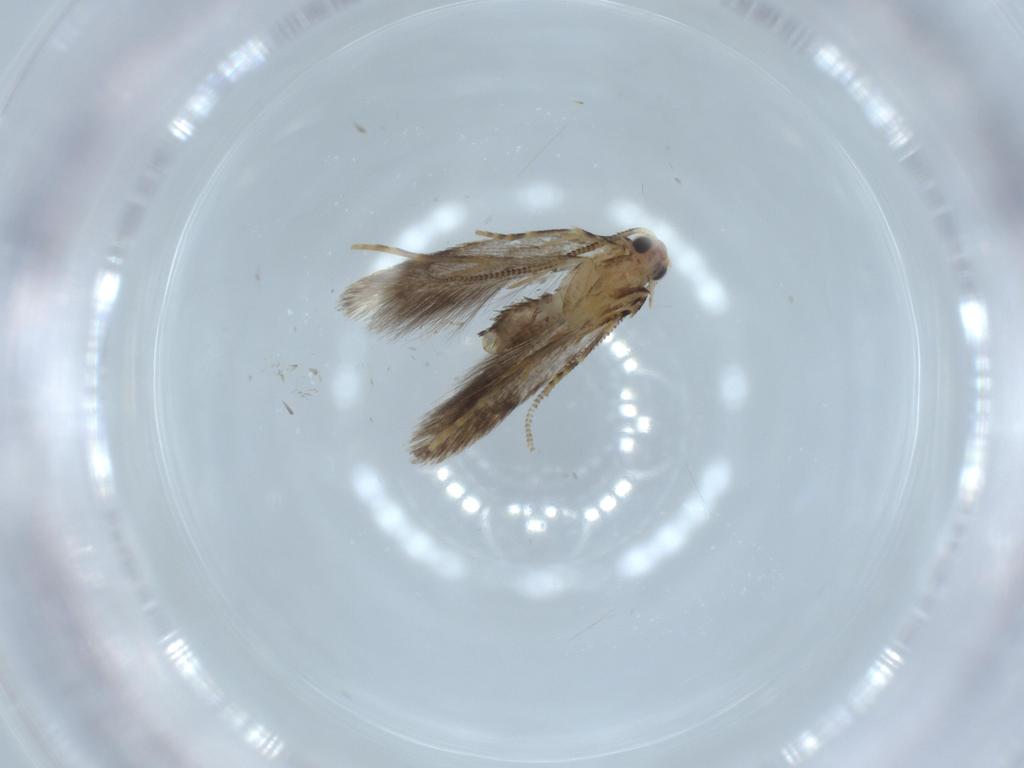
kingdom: Animalia
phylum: Arthropoda
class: Insecta
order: Lepidoptera
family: Tineidae
